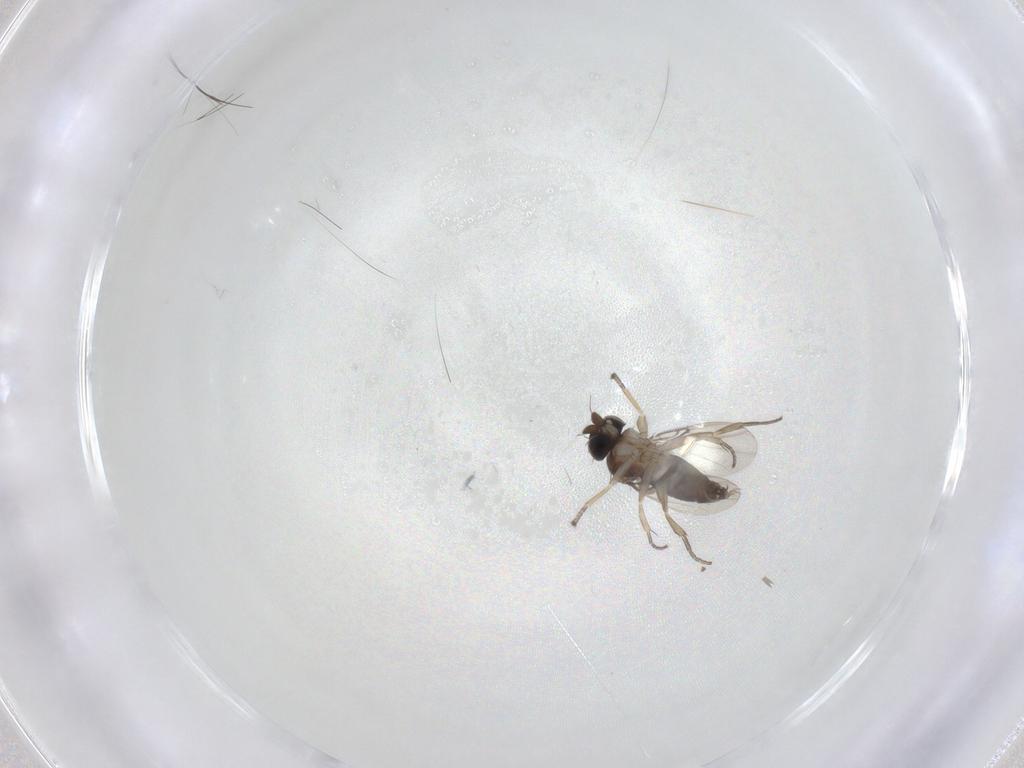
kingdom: Animalia
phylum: Arthropoda
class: Insecta
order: Diptera
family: Phoridae
